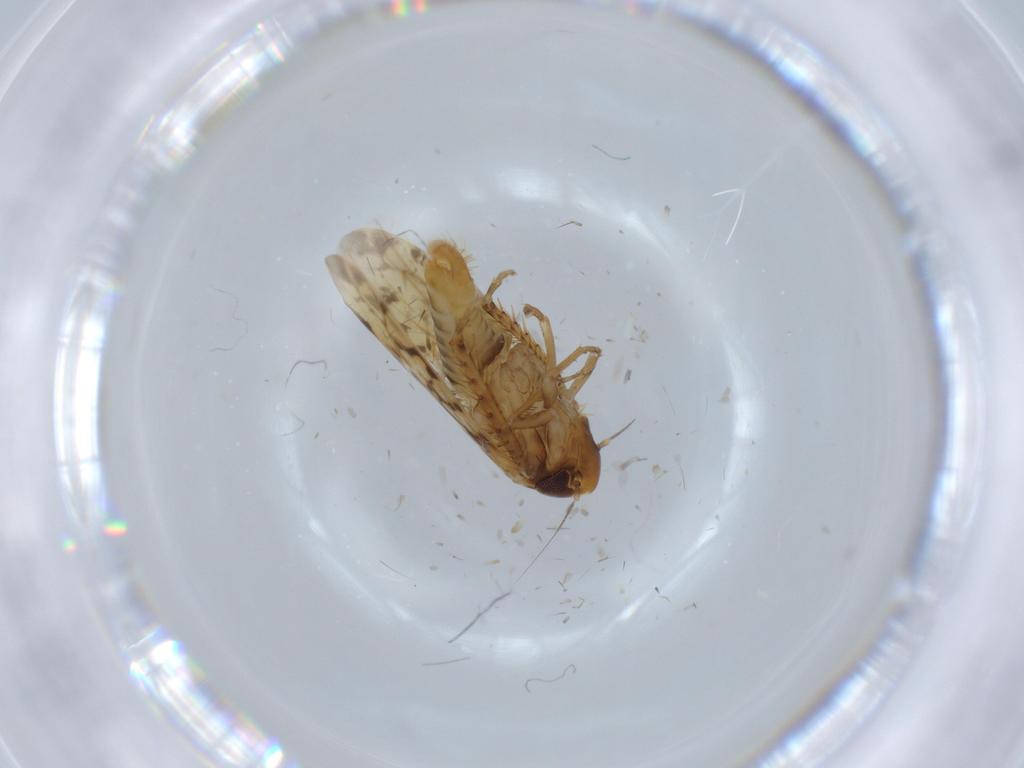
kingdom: Animalia
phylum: Arthropoda
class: Insecta
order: Hemiptera
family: Cicadellidae
